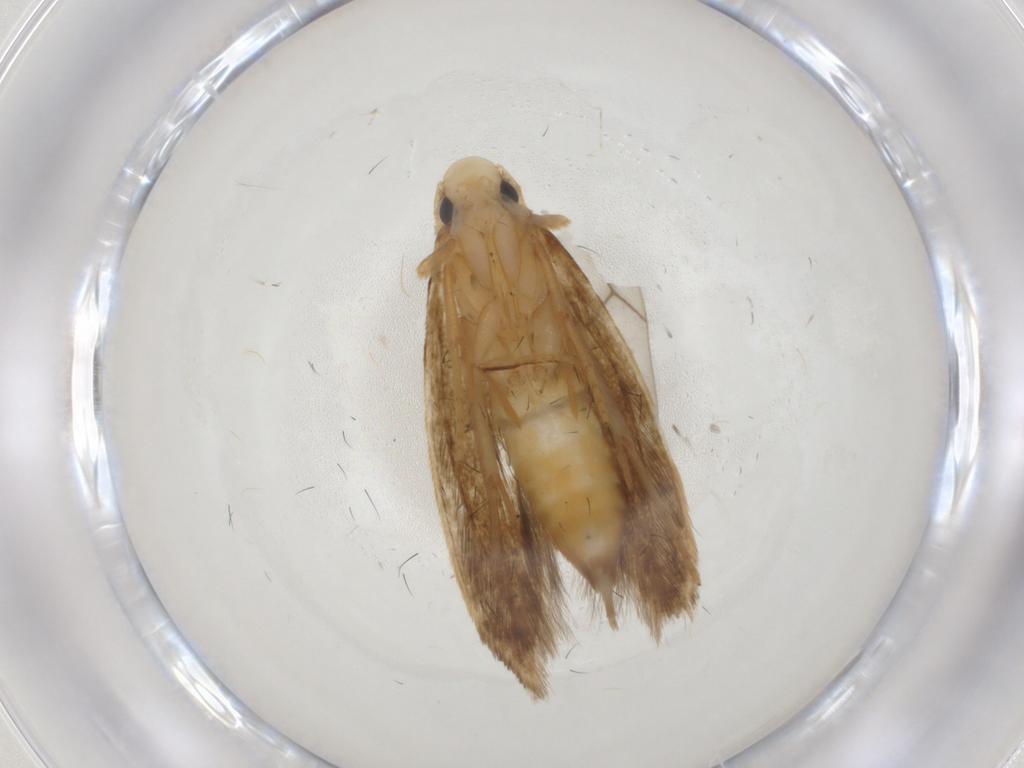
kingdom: Animalia
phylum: Arthropoda
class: Insecta
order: Lepidoptera
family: Tineidae
